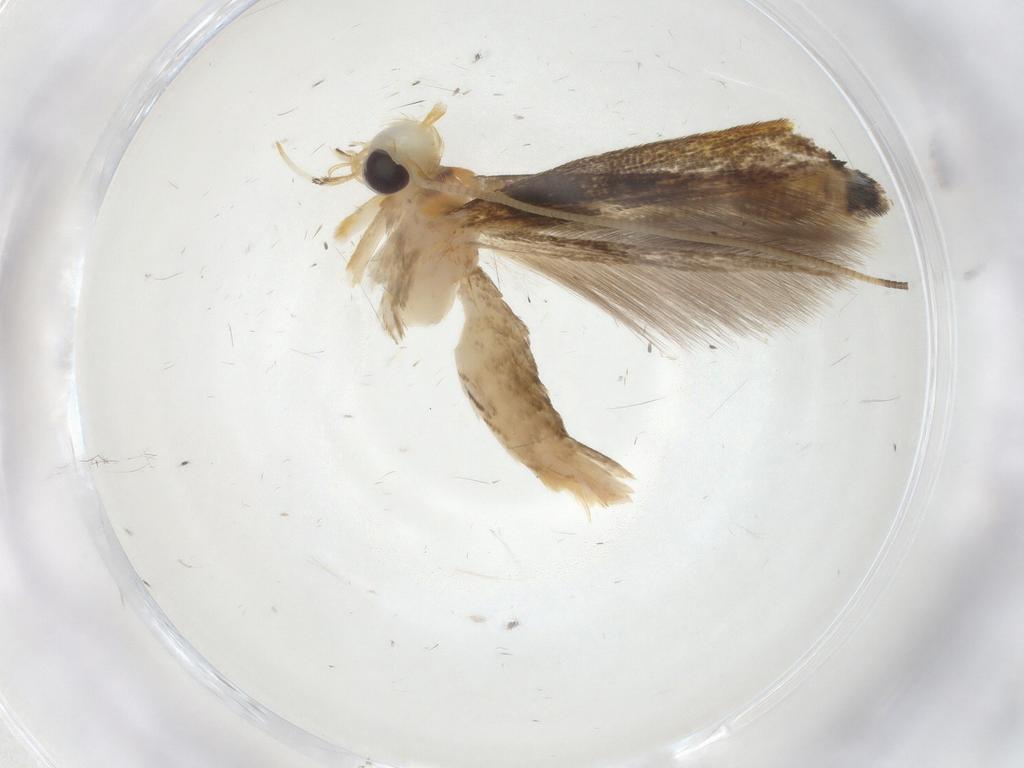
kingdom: Animalia
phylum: Arthropoda
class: Insecta
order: Lepidoptera
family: Gracillariidae
